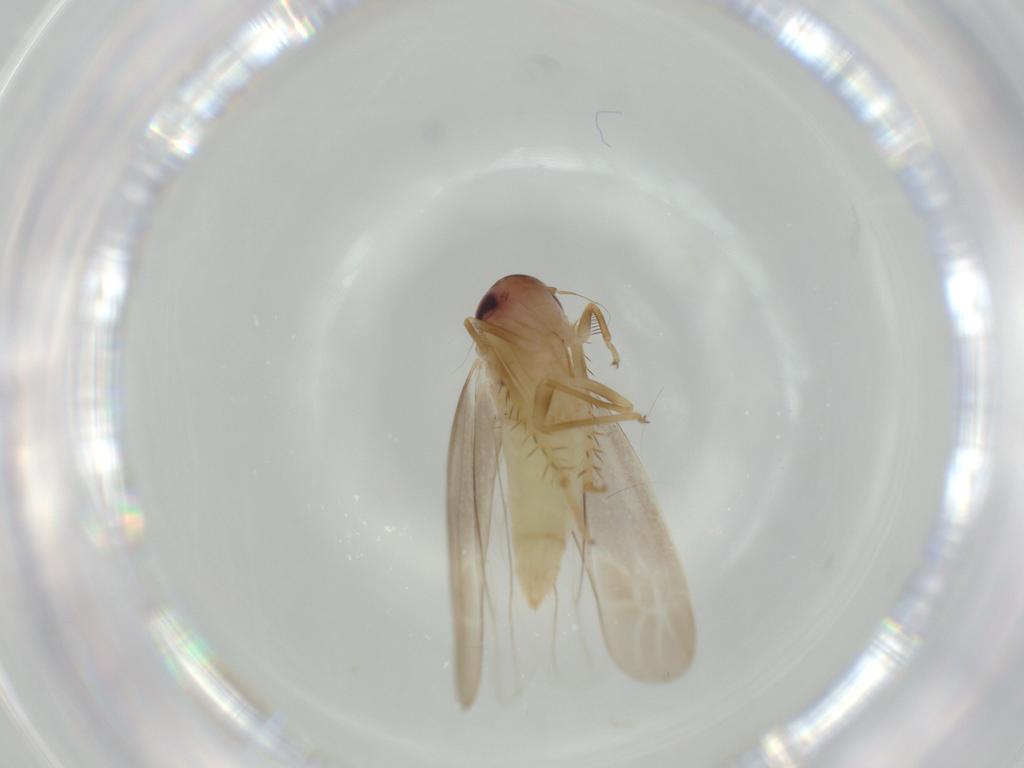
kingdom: Animalia
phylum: Arthropoda
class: Insecta
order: Hemiptera
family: Cicadellidae
